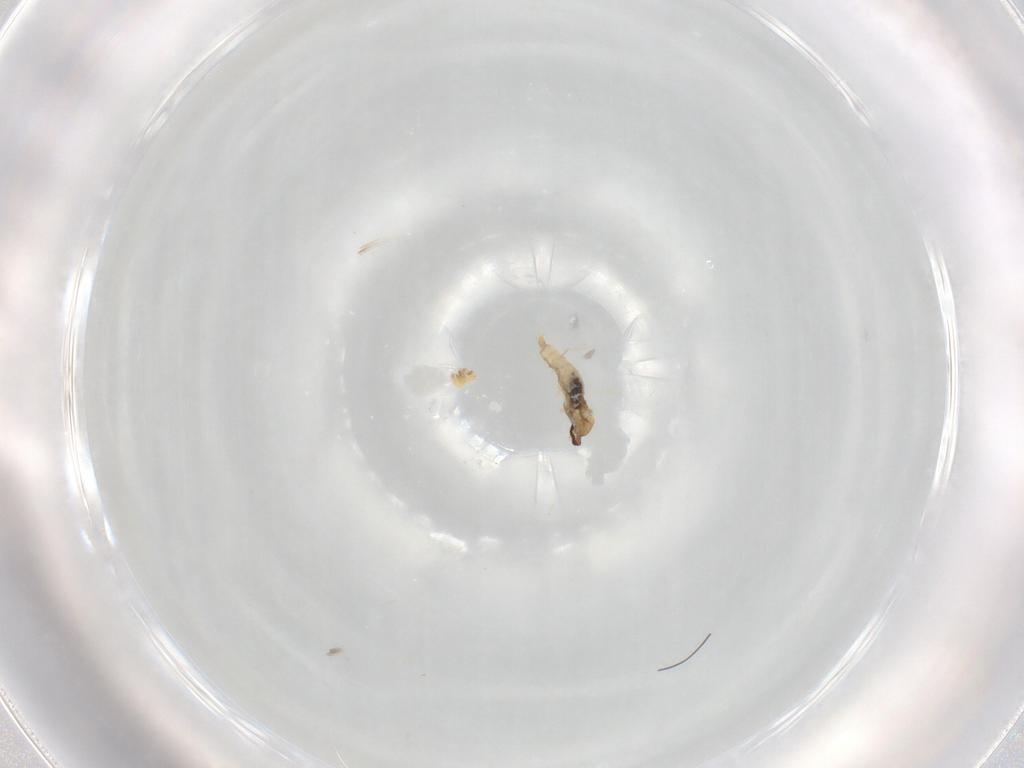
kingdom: Animalia
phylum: Arthropoda
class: Insecta
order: Diptera
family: Cecidomyiidae
